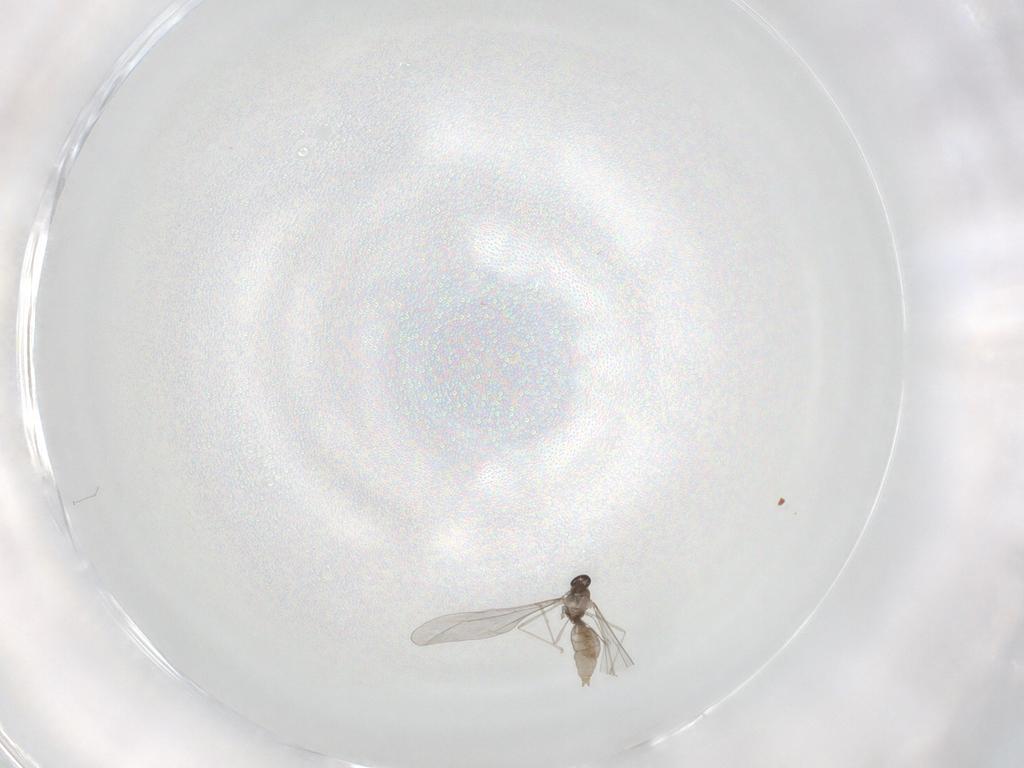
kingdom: Animalia
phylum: Arthropoda
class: Insecta
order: Diptera
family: Cecidomyiidae
